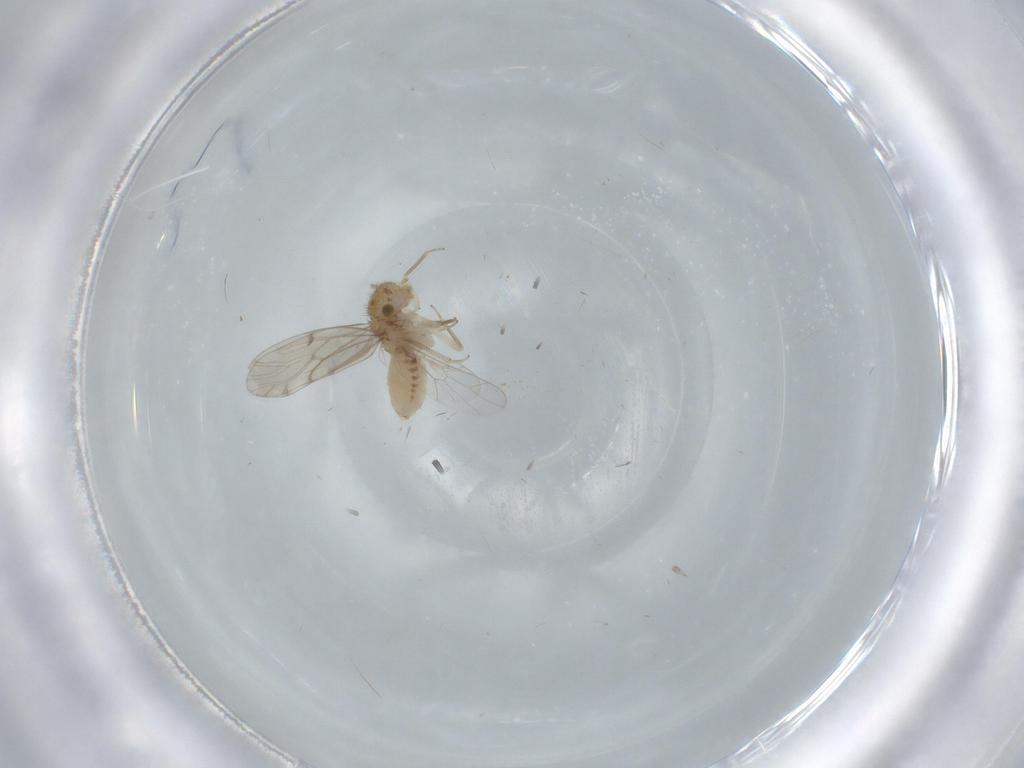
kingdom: Animalia
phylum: Arthropoda
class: Insecta
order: Psocodea
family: Ectopsocidae
